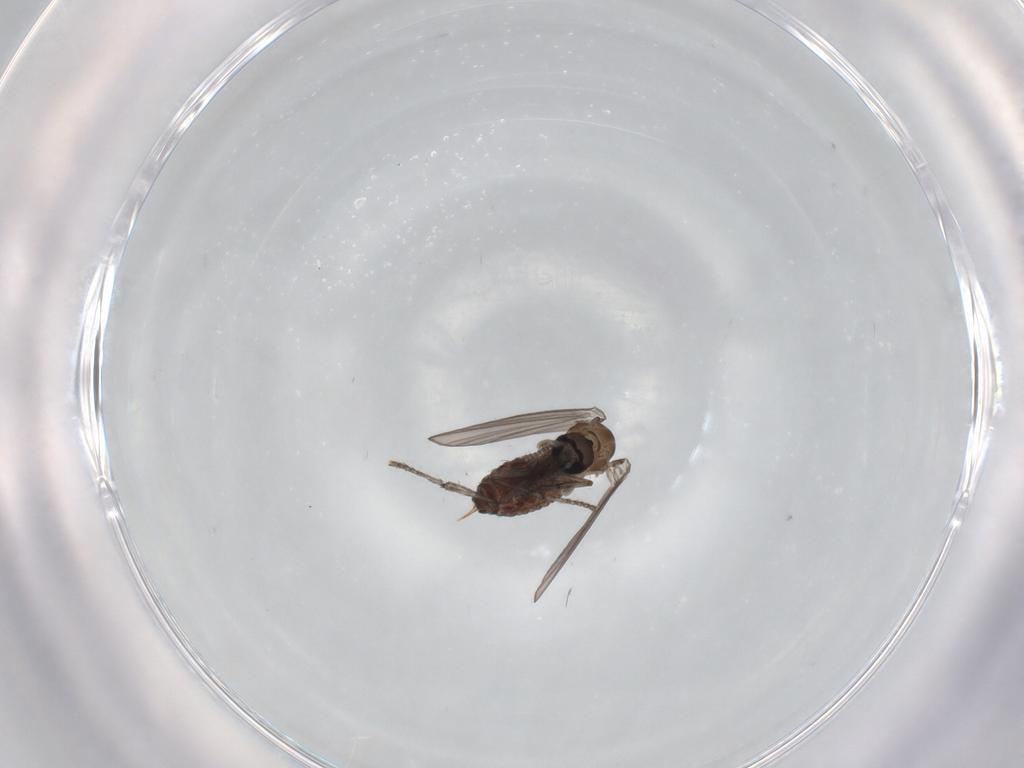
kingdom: Animalia
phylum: Arthropoda
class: Insecta
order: Diptera
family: Psychodidae
